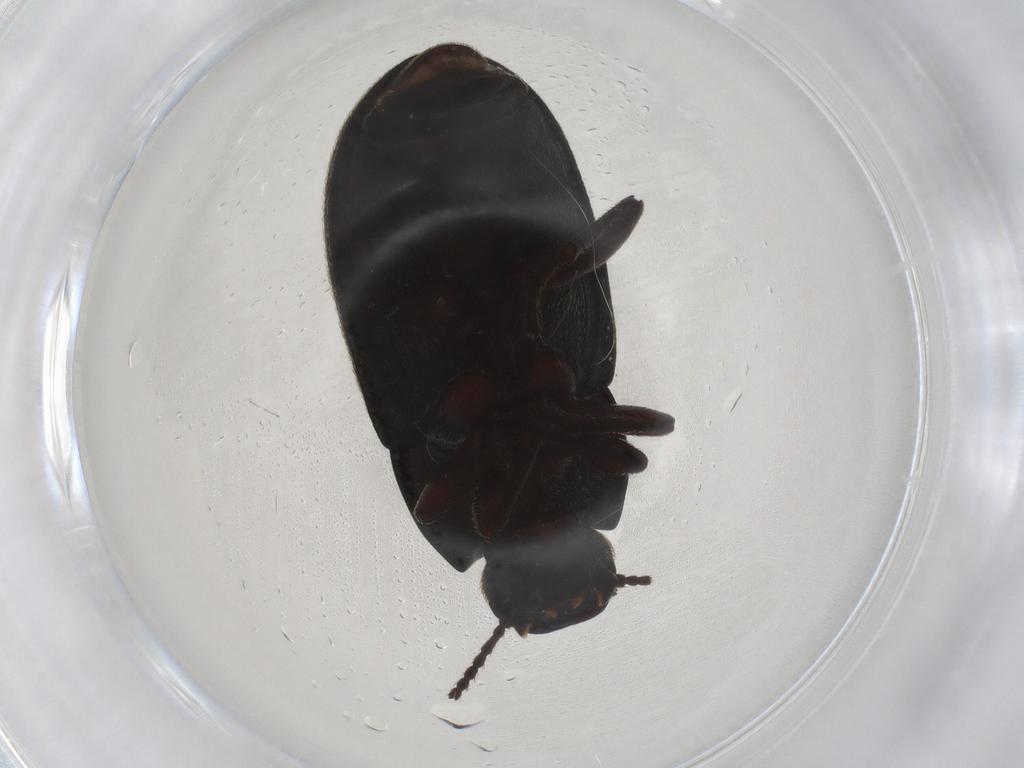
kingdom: Animalia
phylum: Arthropoda
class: Insecta
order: Coleoptera
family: Tenebrionidae
